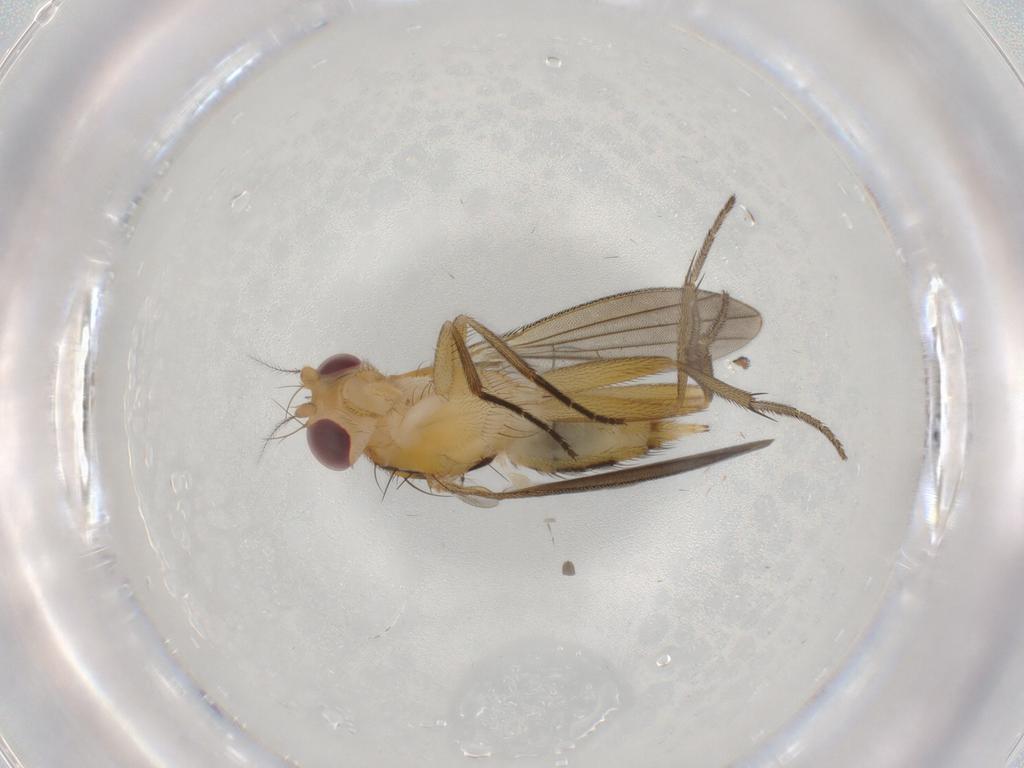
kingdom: Animalia
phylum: Arthropoda
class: Insecta
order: Diptera
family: Clusiidae
